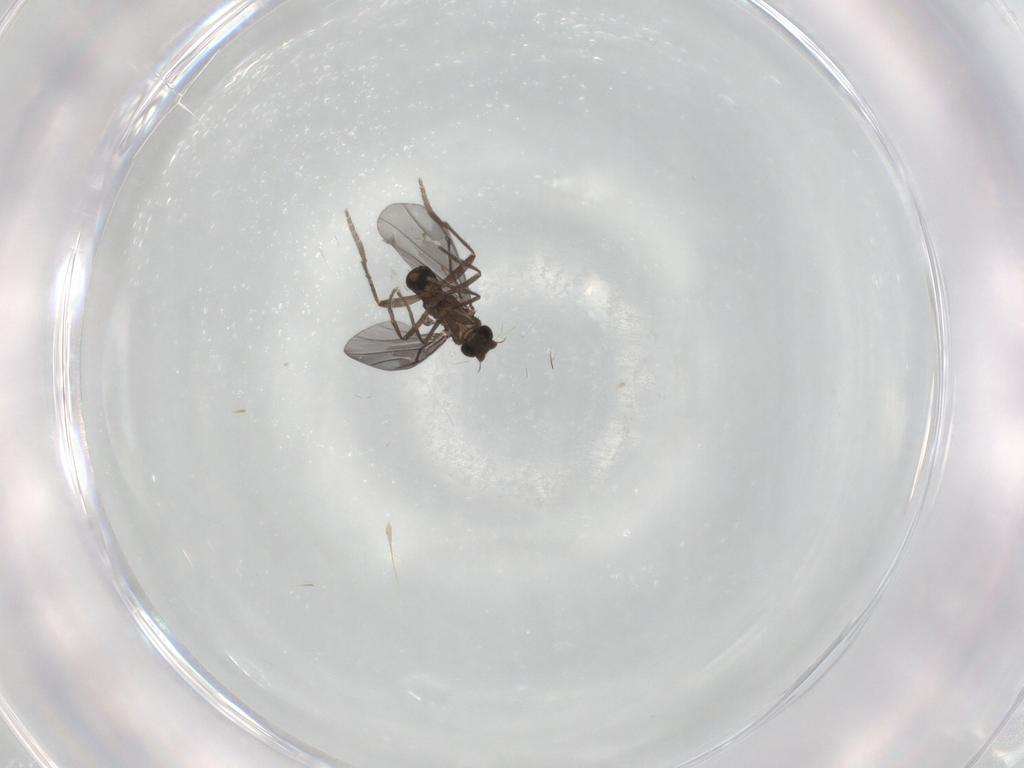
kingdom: Animalia
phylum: Arthropoda
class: Insecta
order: Diptera
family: Phoridae
